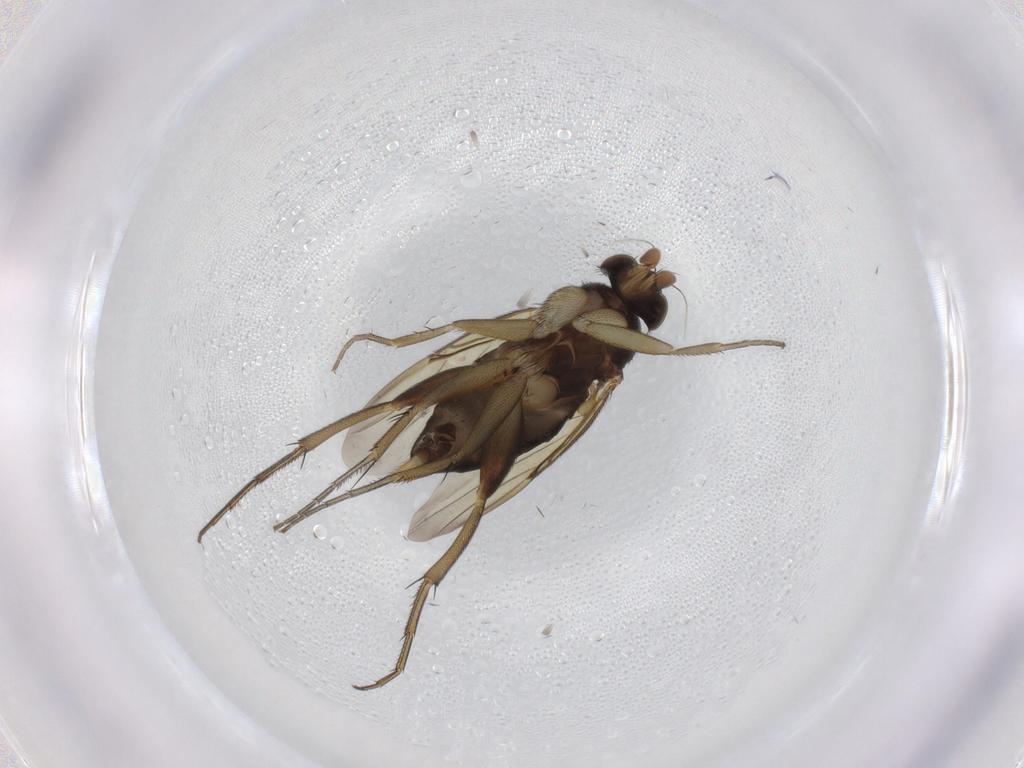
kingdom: Animalia
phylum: Arthropoda
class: Insecta
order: Diptera
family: Phoridae
